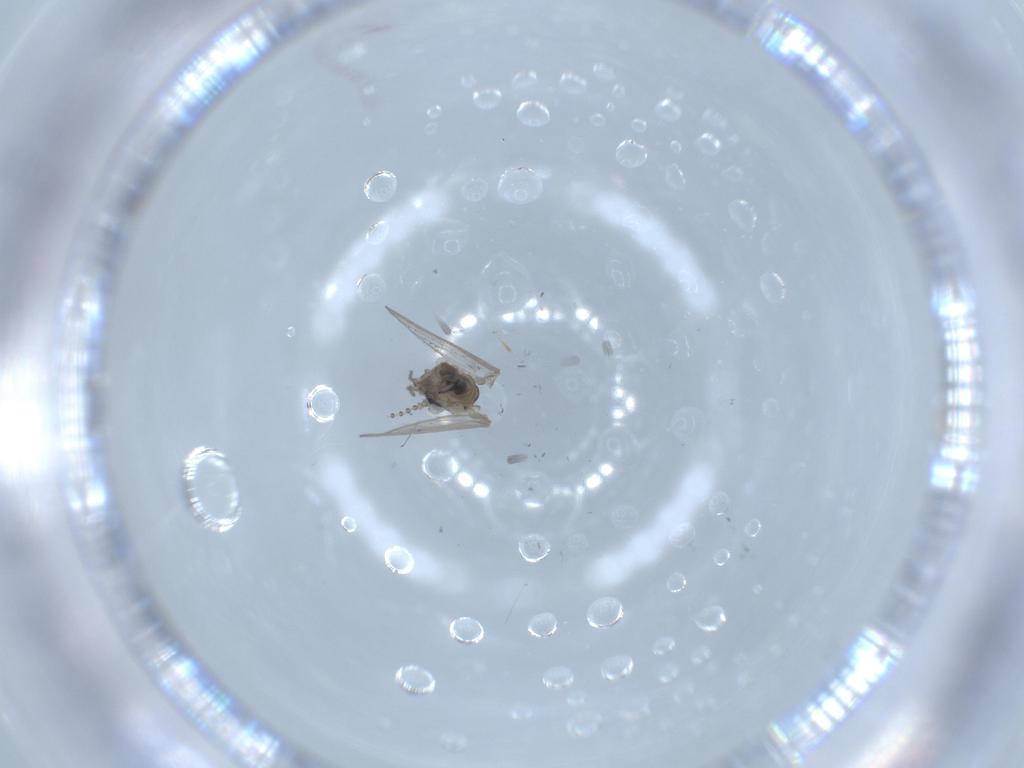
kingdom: Animalia
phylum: Arthropoda
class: Insecta
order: Diptera
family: Psychodidae
